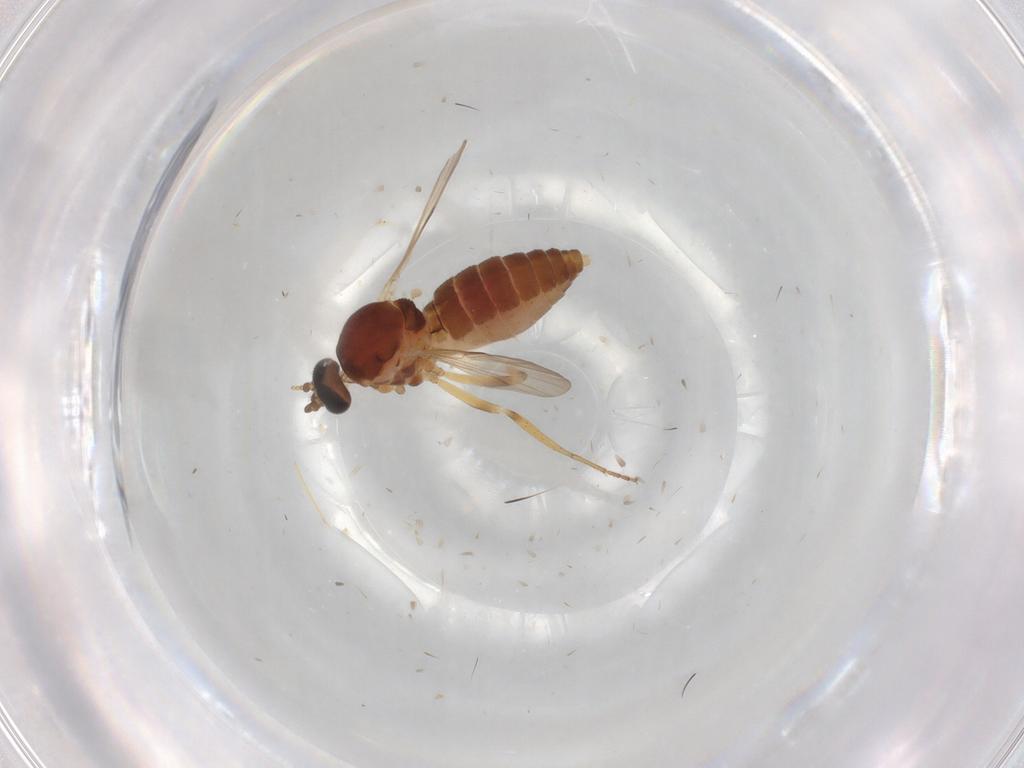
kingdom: Animalia
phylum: Arthropoda
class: Insecta
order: Diptera
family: Ceratopogonidae
